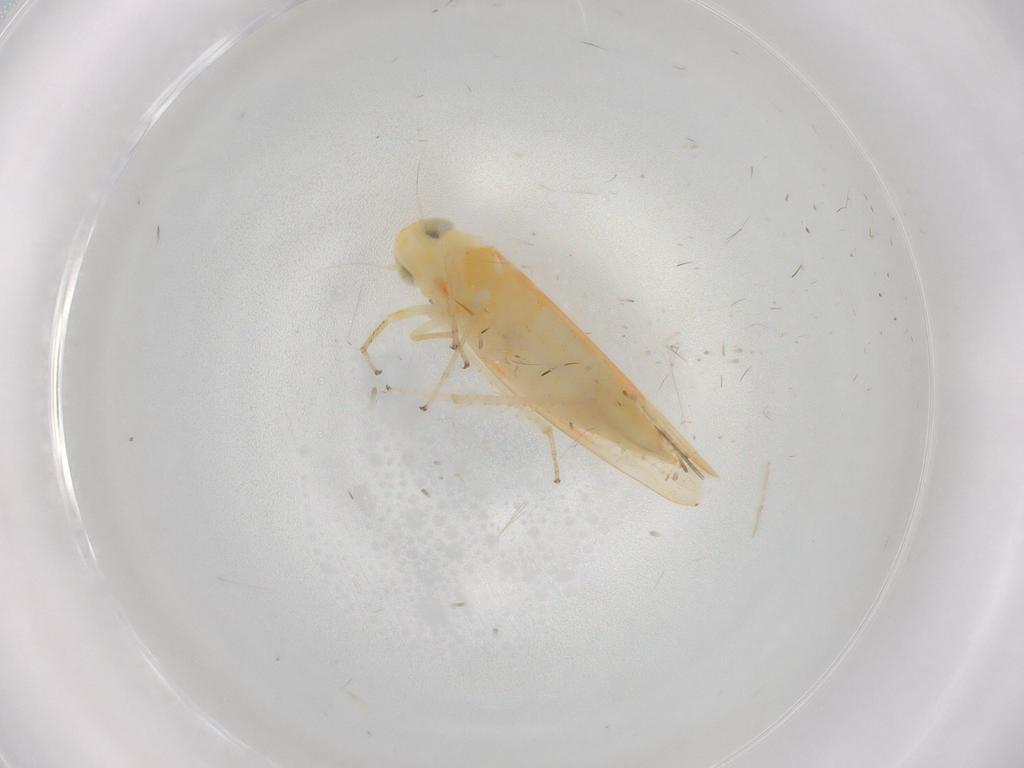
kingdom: Animalia
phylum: Arthropoda
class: Insecta
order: Hemiptera
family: Cicadellidae
